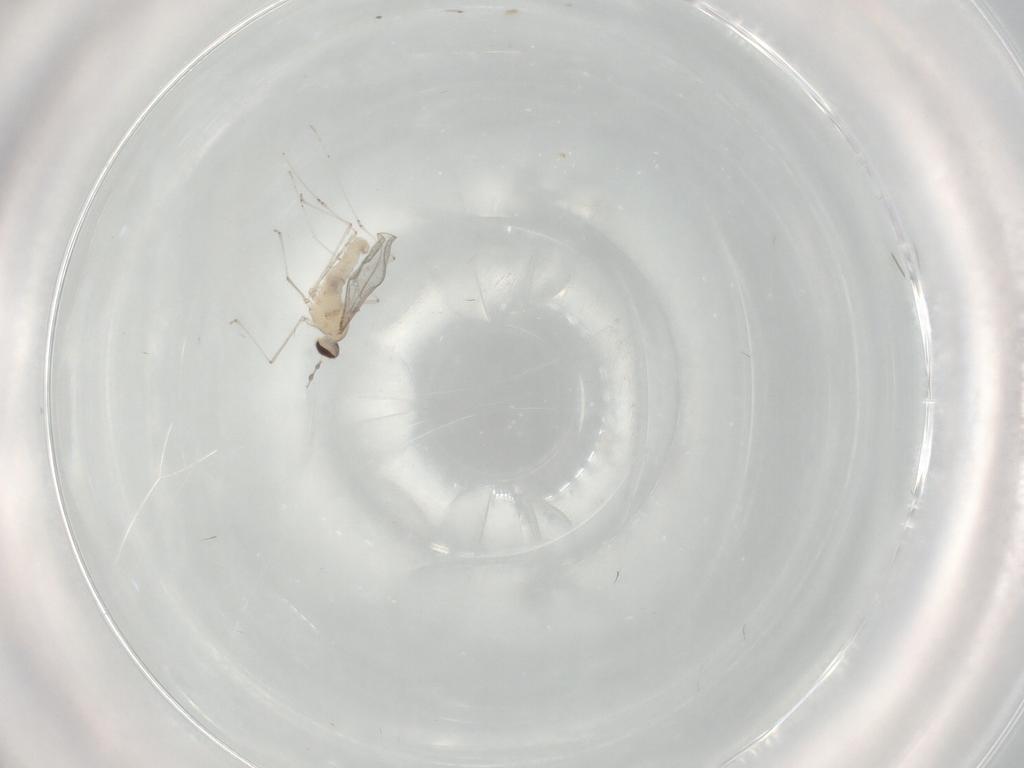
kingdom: Animalia
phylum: Arthropoda
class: Insecta
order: Diptera
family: Cecidomyiidae
